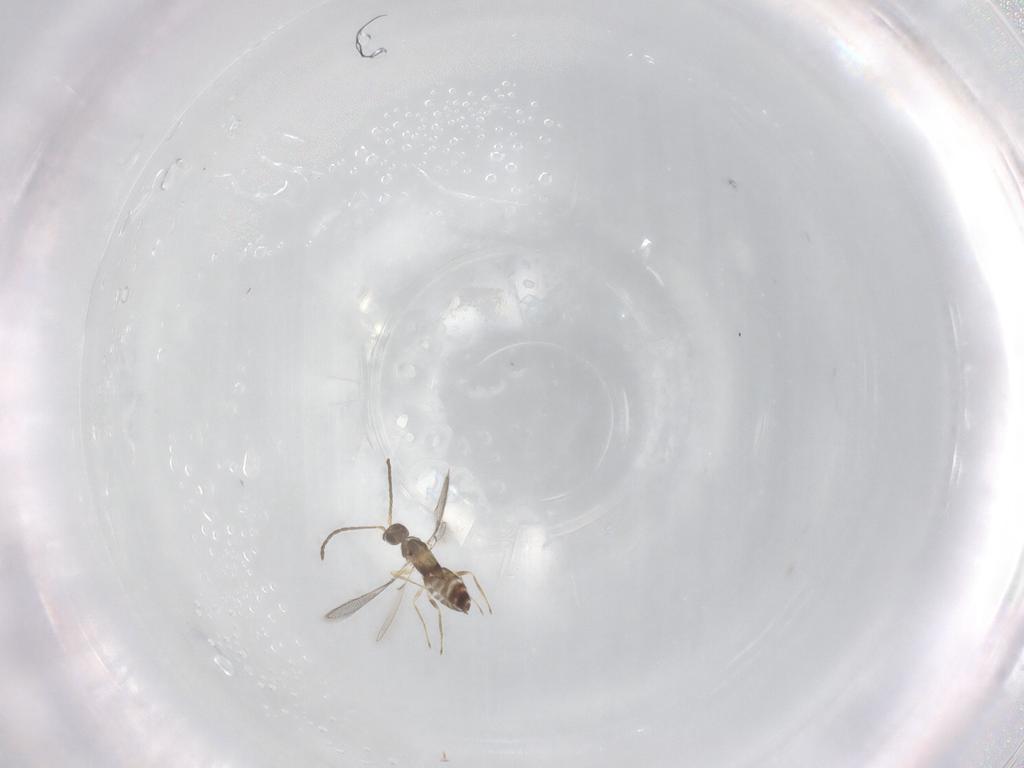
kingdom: Animalia
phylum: Arthropoda
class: Insecta
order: Hymenoptera
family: Mymaridae
